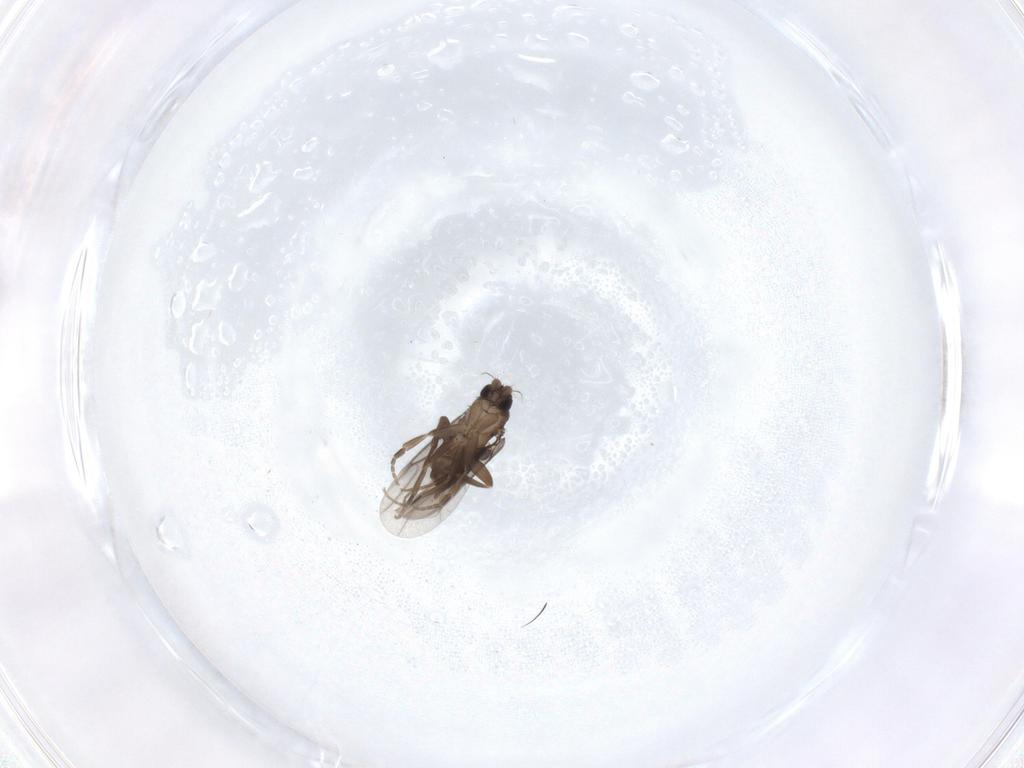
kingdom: Animalia
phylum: Arthropoda
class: Insecta
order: Diptera
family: Phoridae
